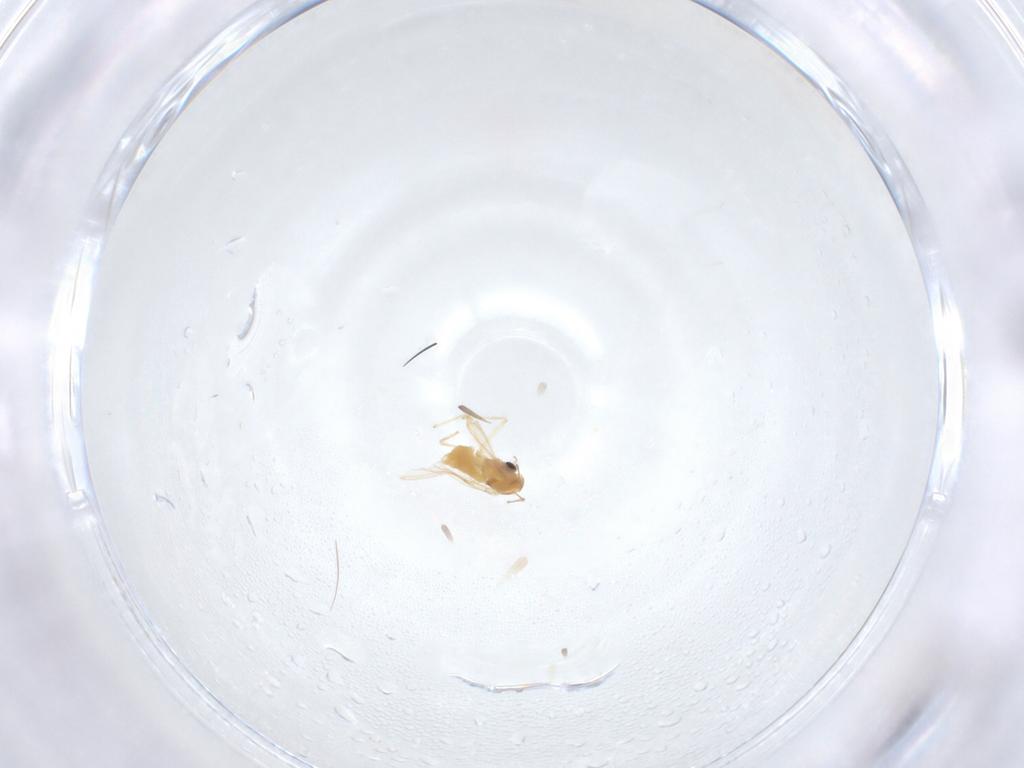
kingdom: Animalia
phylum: Arthropoda
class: Insecta
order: Diptera
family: Chironomidae
